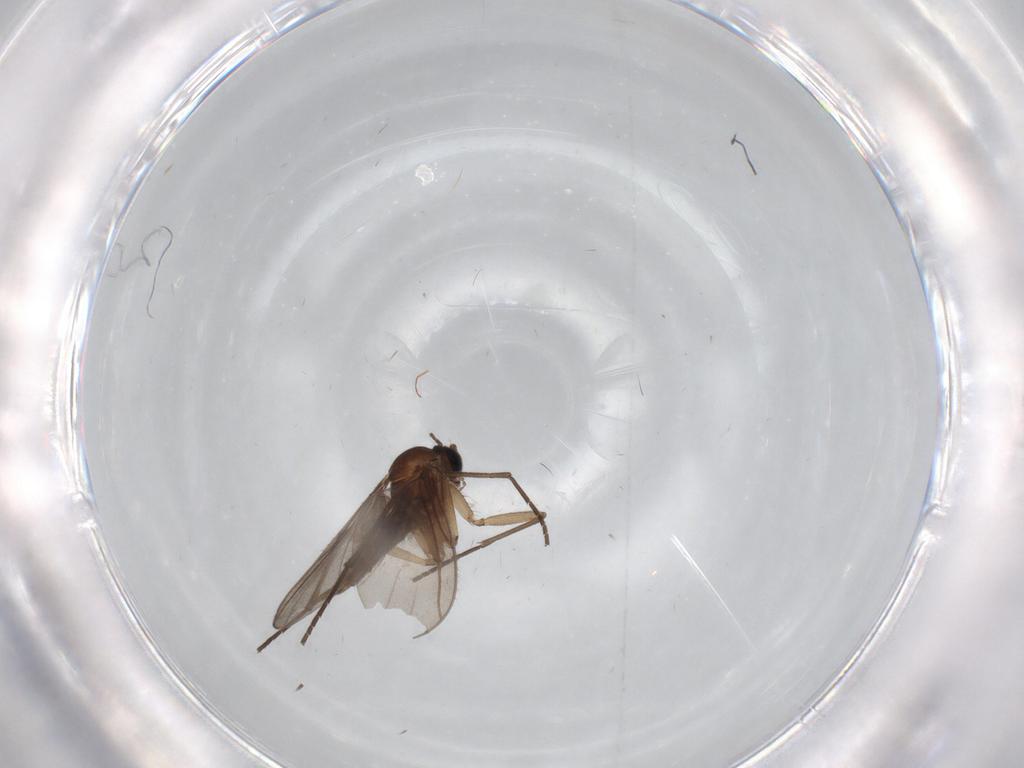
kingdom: Animalia
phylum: Arthropoda
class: Insecta
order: Diptera
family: Sciaridae
